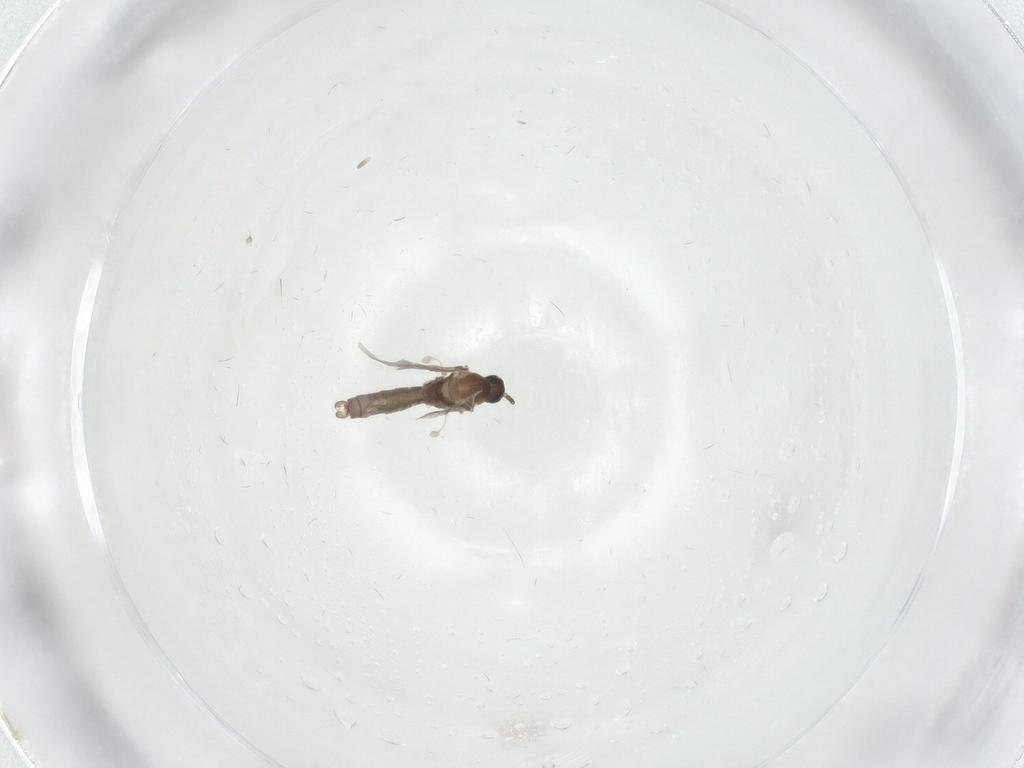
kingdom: Animalia
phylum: Arthropoda
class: Insecta
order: Diptera
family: Cecidomyiidae
